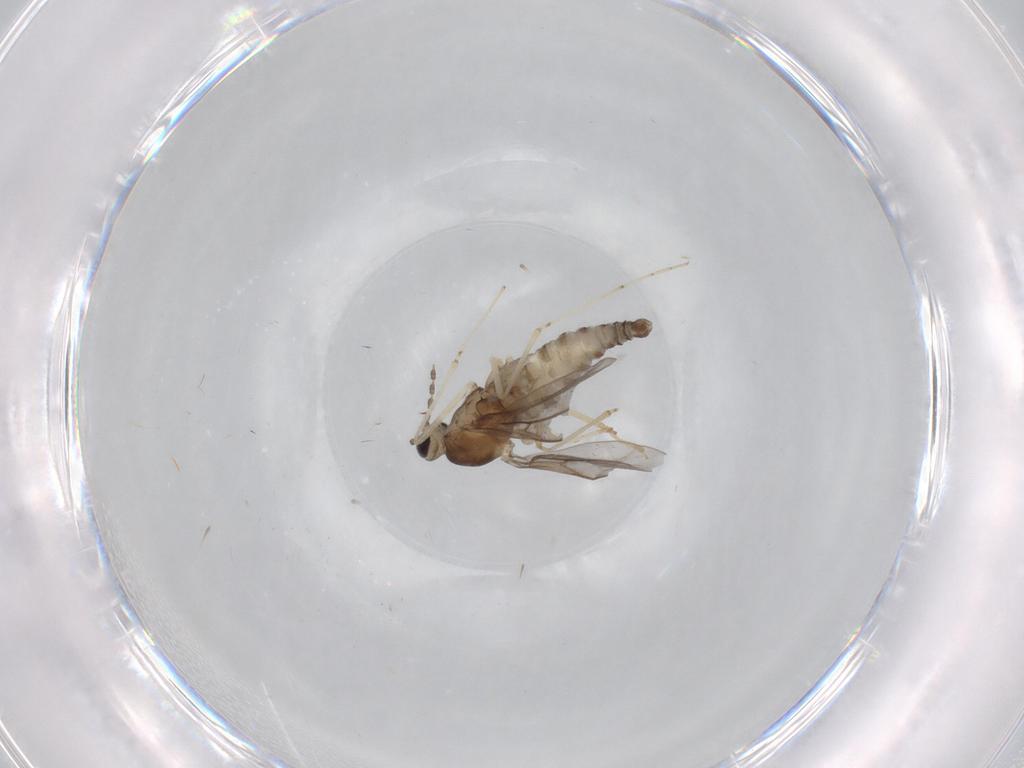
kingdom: Animalia
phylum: Arthropoda
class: Insecta
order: Diptera
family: Cecidomyiidae
